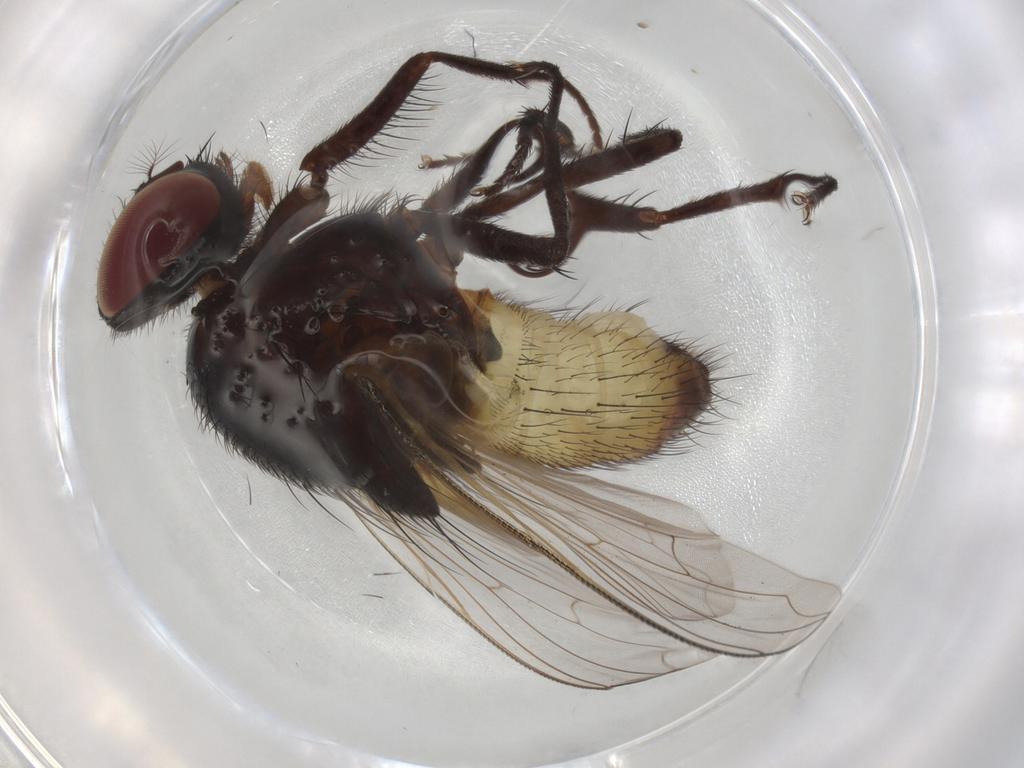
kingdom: Animalia
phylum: Arthropoda
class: Insecta
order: Diptera
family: Muscidae
